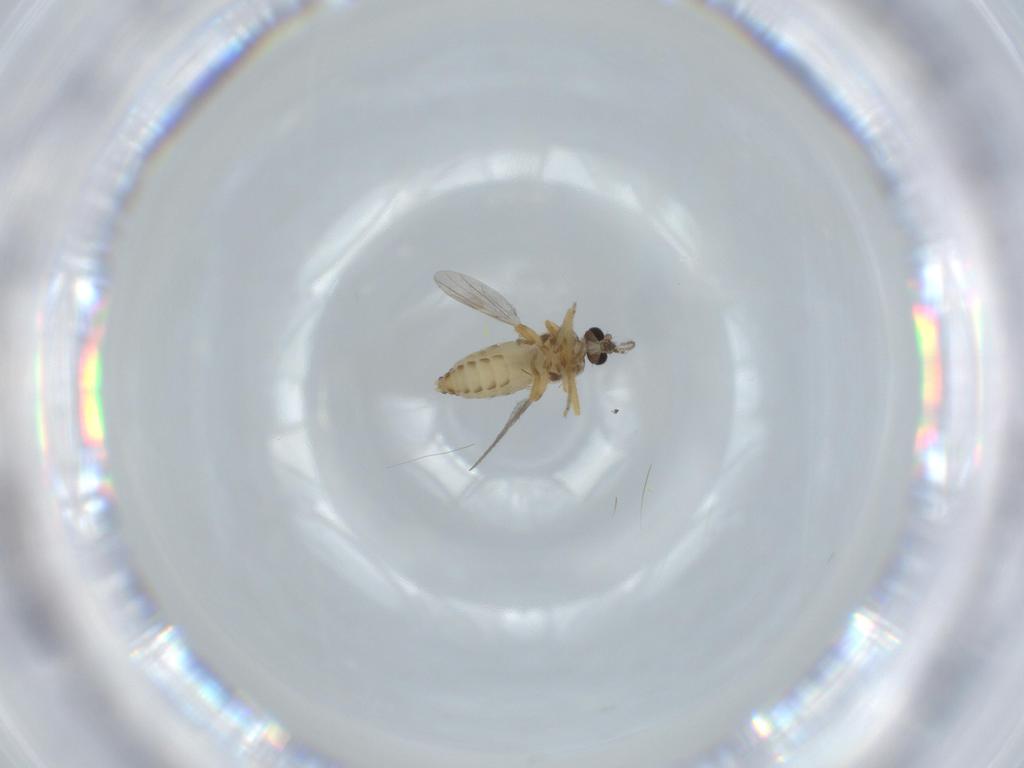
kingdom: Animalia
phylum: Arthropoda
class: Insecta
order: Diptera
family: Ceratopogonidae
